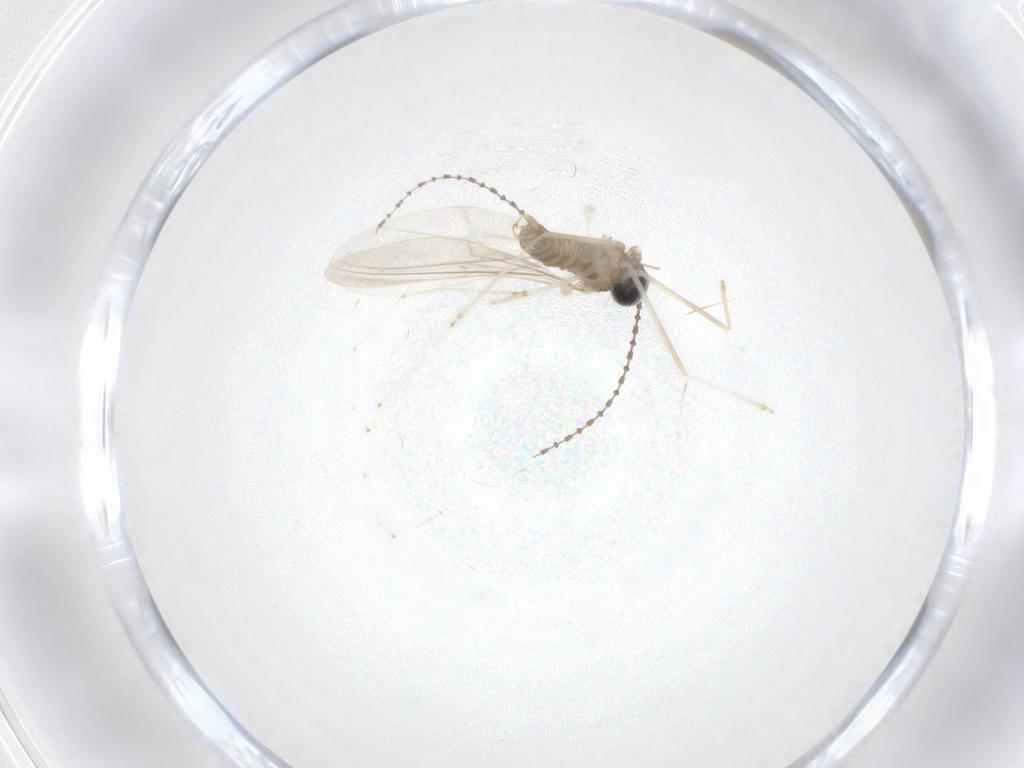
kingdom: Animalia
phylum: Arthropoda
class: Insecta
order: Diptera
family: Cecidomyiidae
